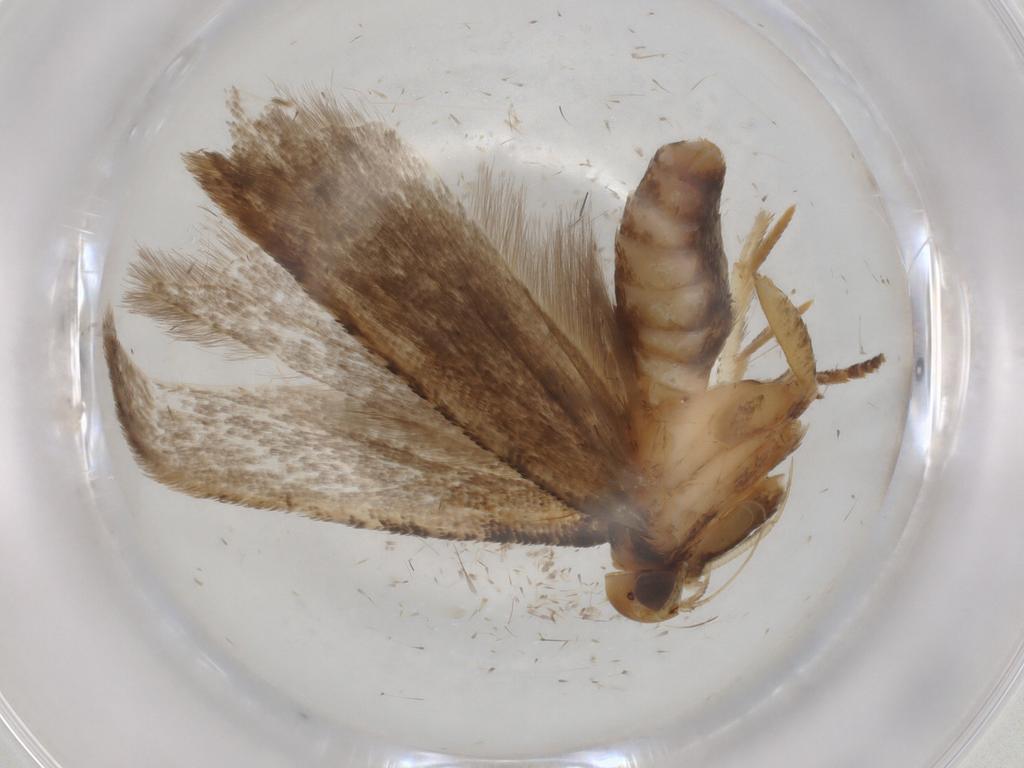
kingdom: Animalia
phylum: Arthropoda
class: Insecta
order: Lepidoptera
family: Gelechiidae
